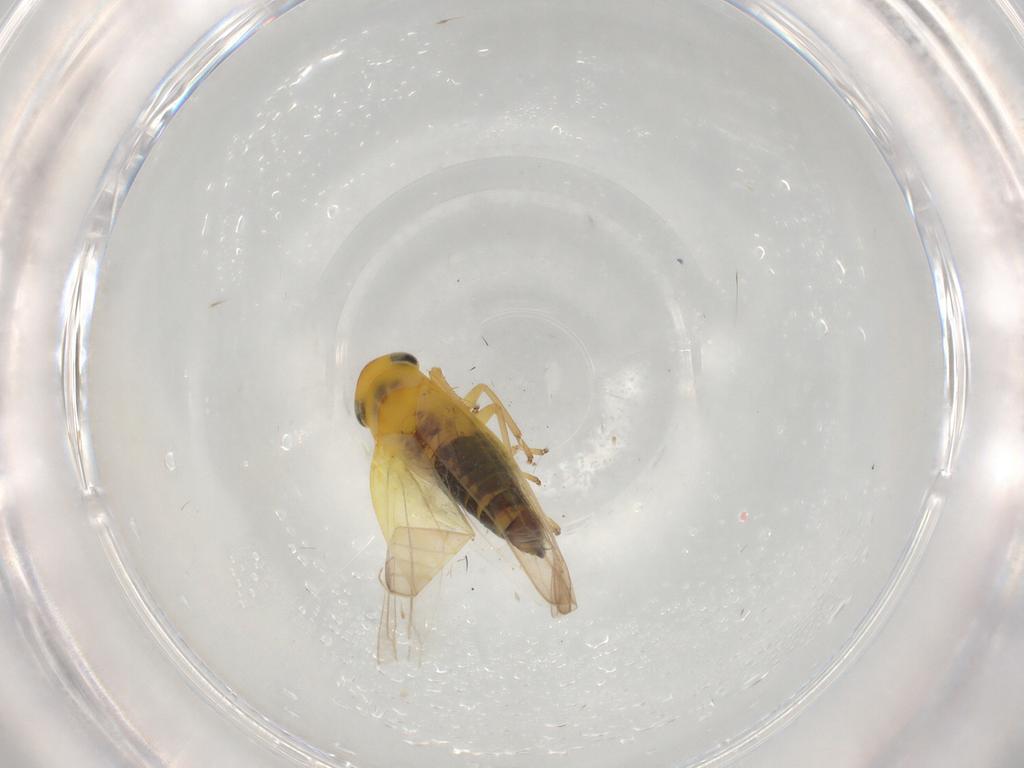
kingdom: Animalia
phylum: Arthropoda
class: Insecta
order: Hemiptera
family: Cicadellidae
